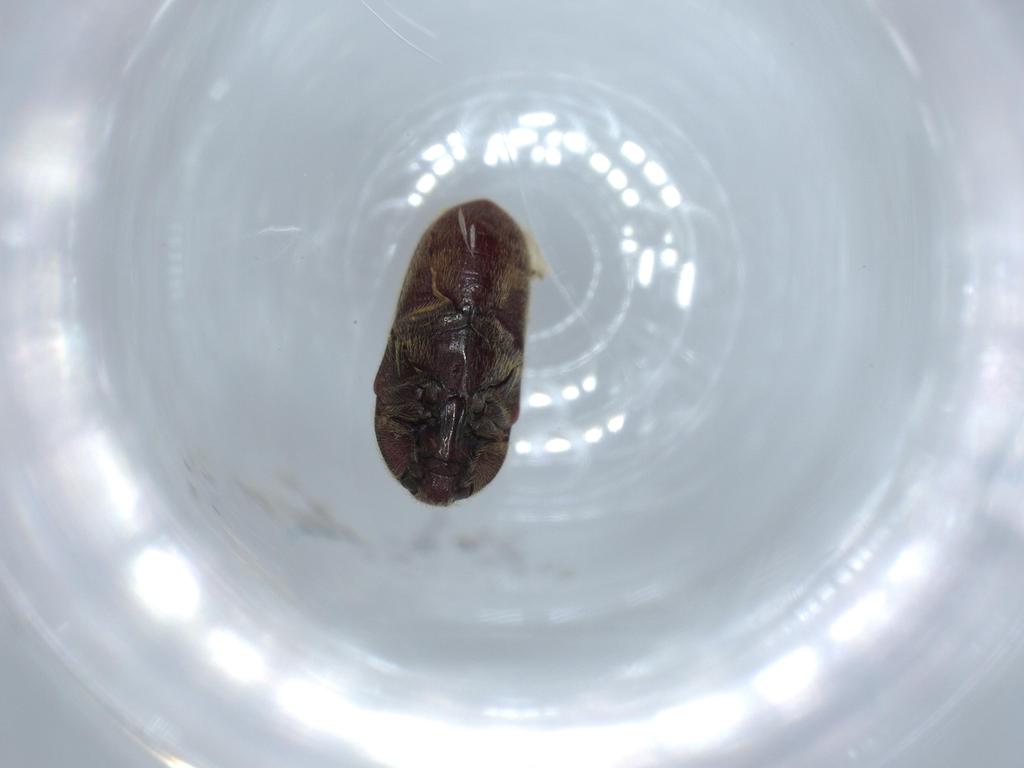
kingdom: Animalia
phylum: Arthropoda
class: Insecta
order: Coleoptera
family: Throscidae
